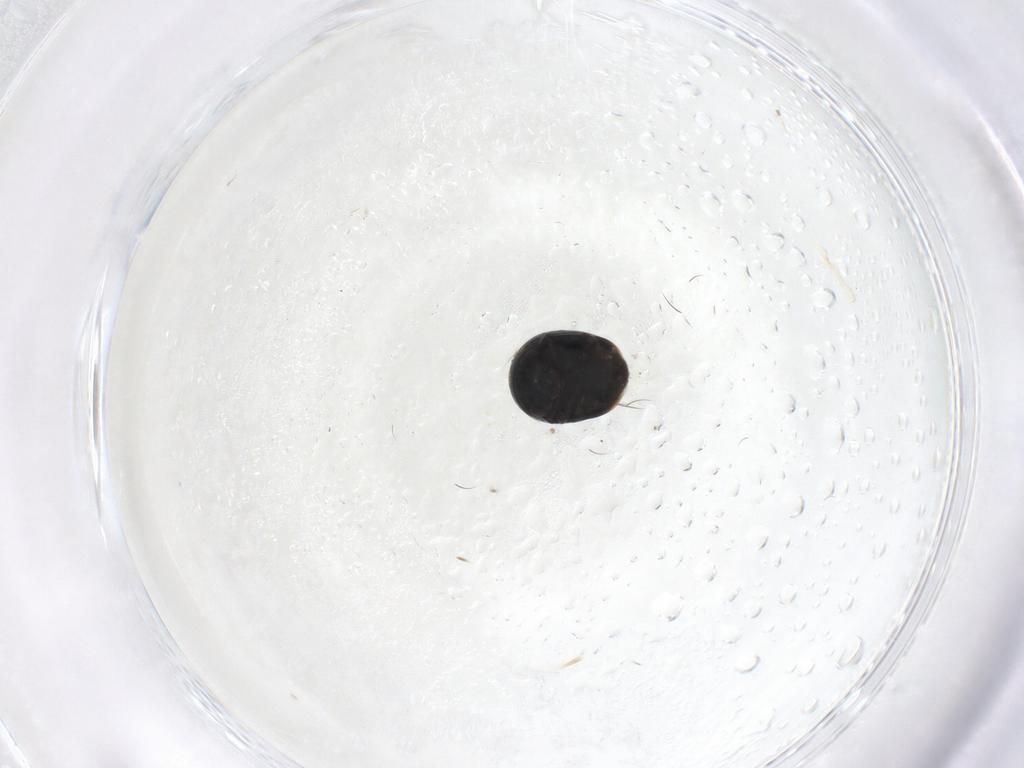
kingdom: Animalia
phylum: Arthropoda
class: Insecta
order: Coleoptera
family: Cybocephalidae
